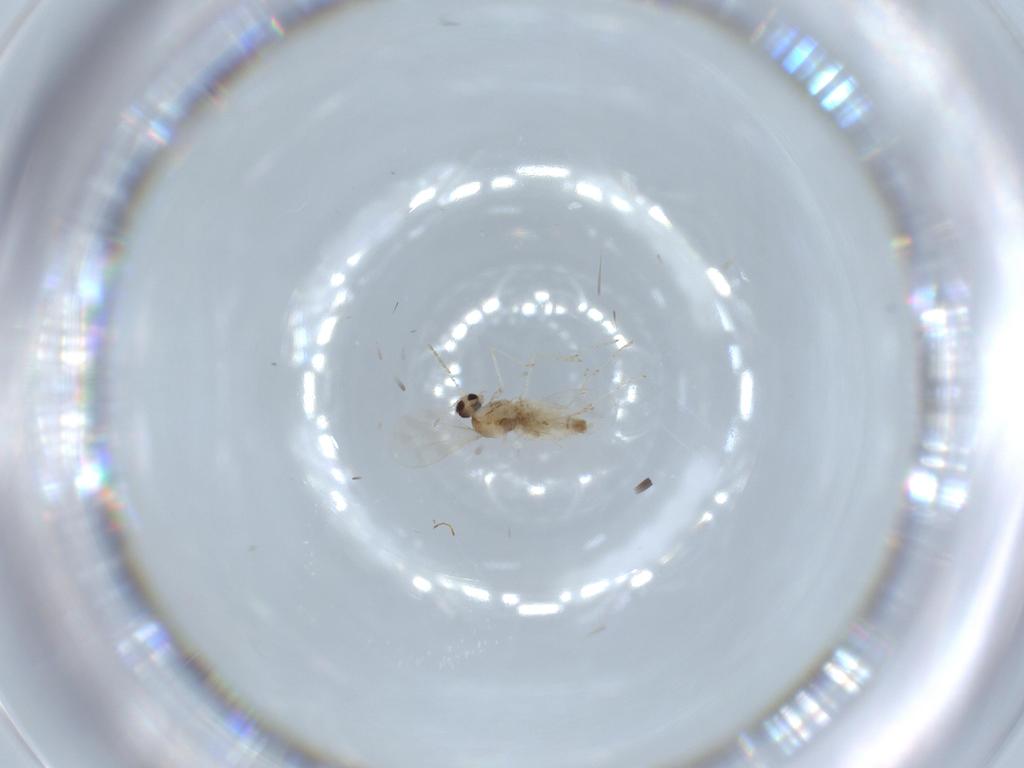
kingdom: Animalia
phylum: Arthropoda
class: Insecta
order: Diptera
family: Cecidomyiidae
